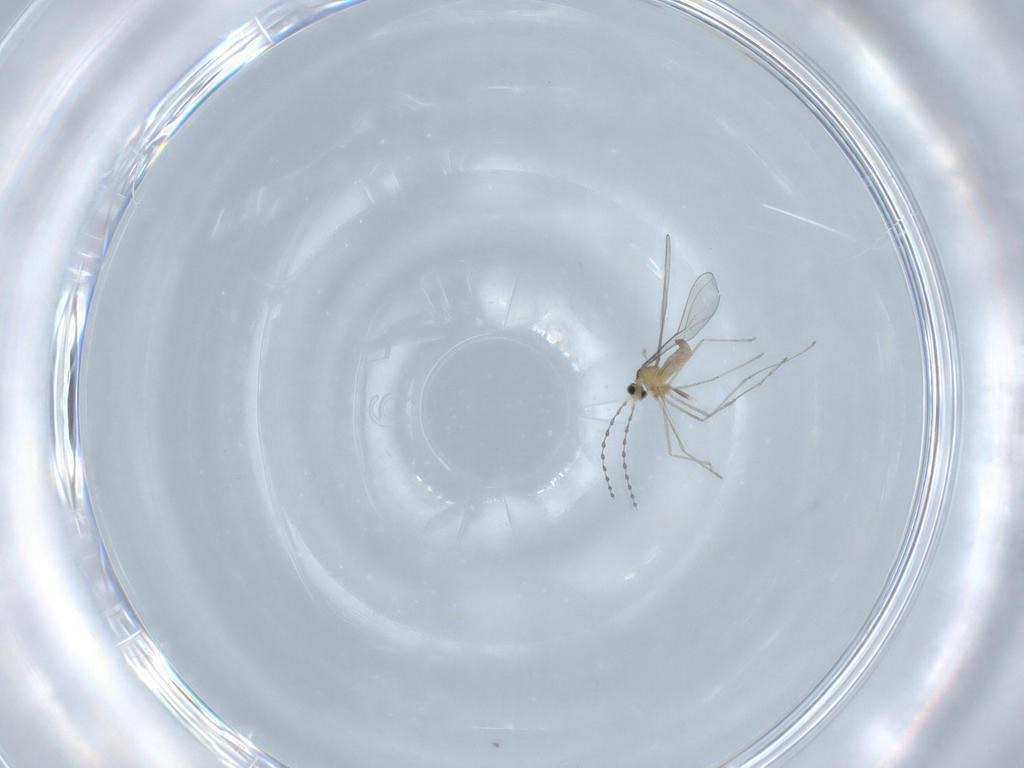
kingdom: Animalia
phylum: Arthropoda
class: Insecta
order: Diptera
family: Cecidomyiidae
